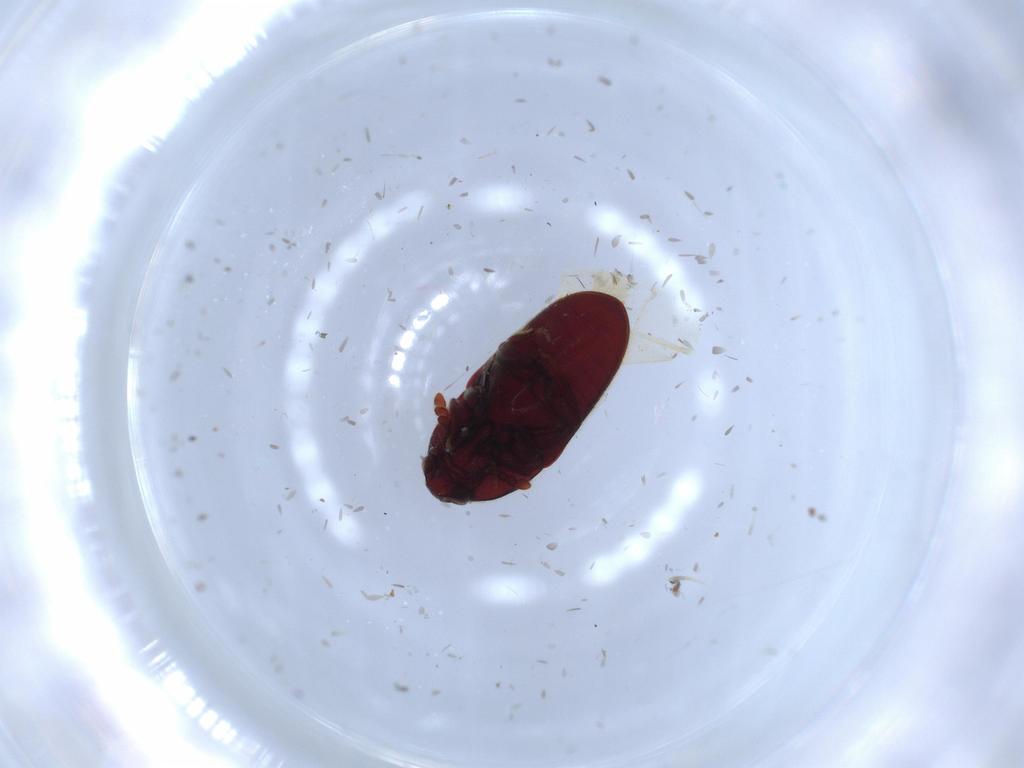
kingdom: Animalia
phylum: Arthropoda
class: Insecta
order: Coleoptera
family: Throscidae
